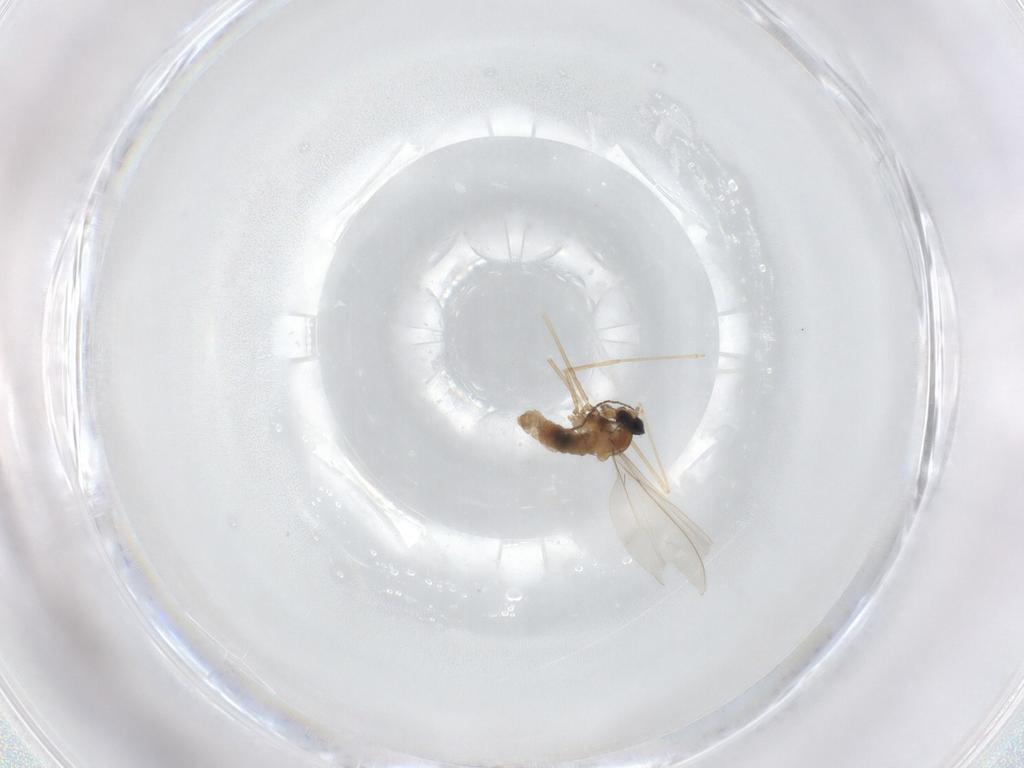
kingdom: Animalia
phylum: Arthropoda
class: Insecta
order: Diptera
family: Cecidomyiidae
